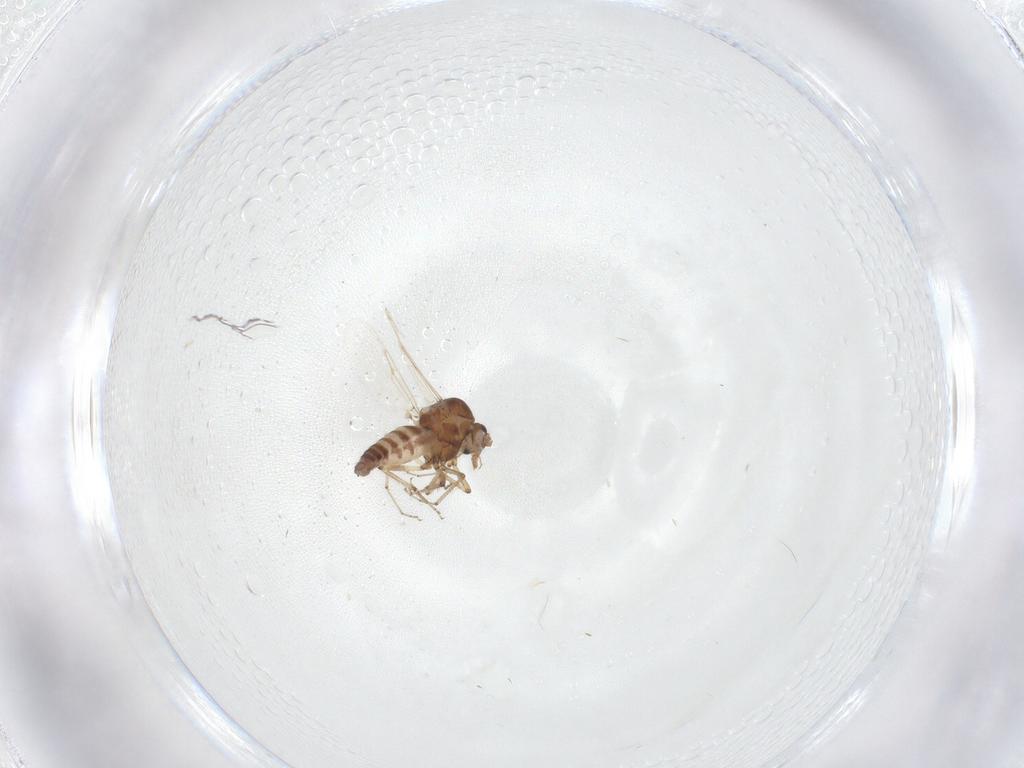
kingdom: Animalia
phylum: Arthropoda
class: Insecta
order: Diptera
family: Ceratopogonidae
